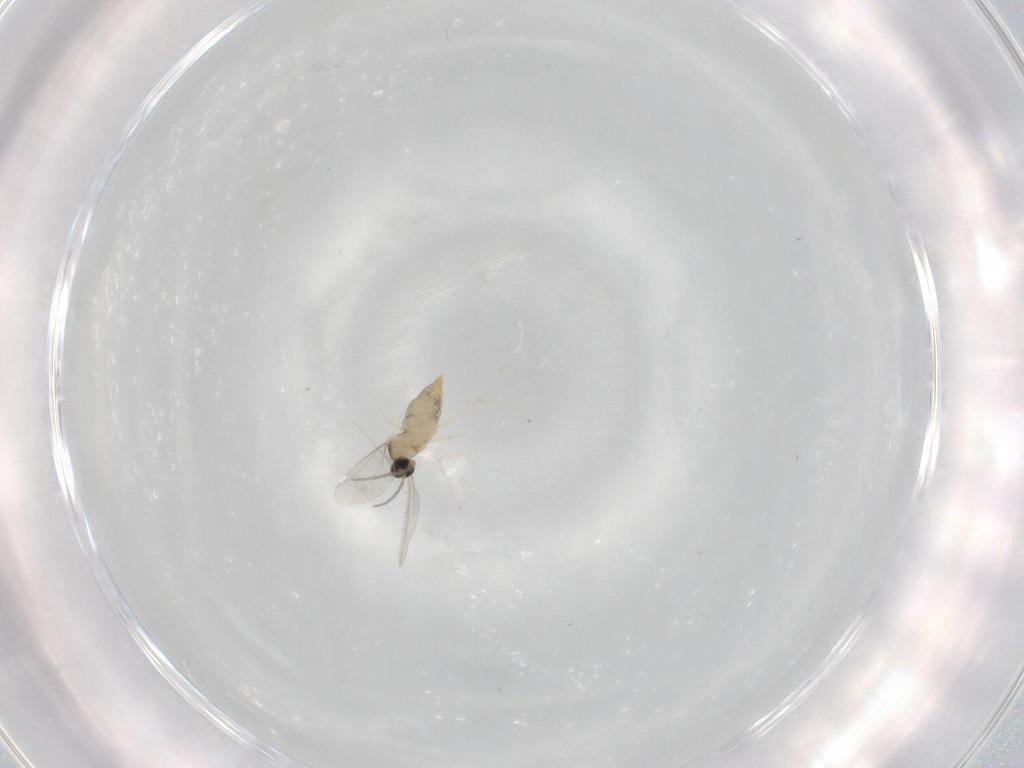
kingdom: Animalia
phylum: Arthropoda
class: Insecta
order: Diptera
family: Cecidomyiidae
